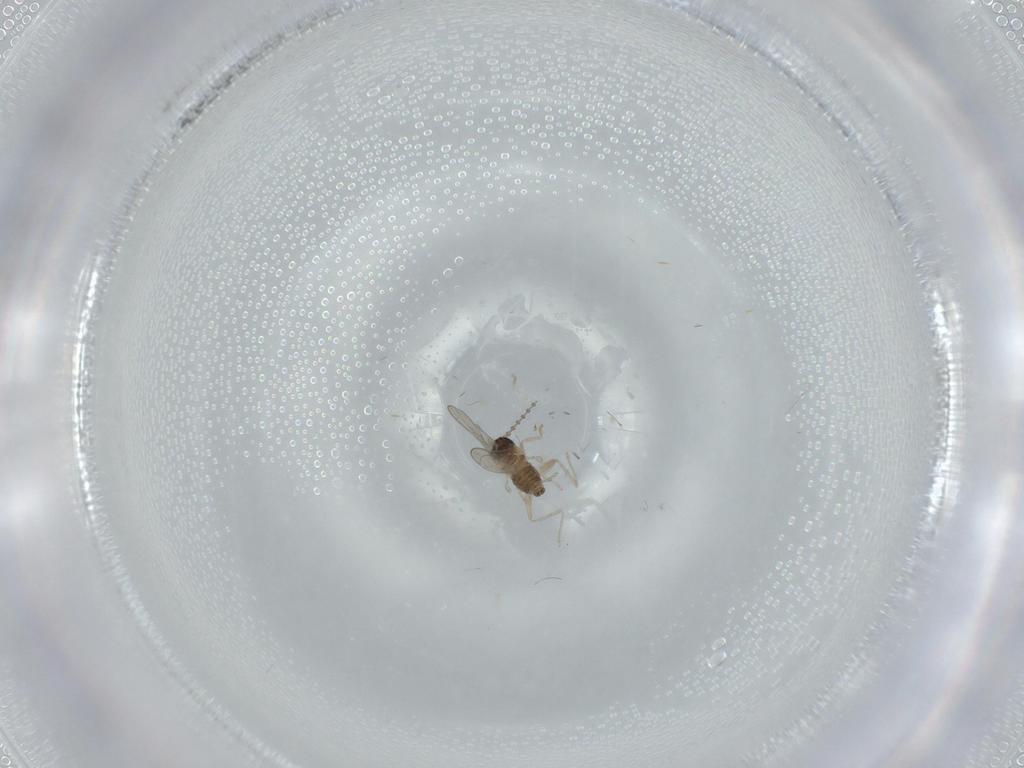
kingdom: Animalia
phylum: Arthropoda
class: Insecta
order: Diptera
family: Cecidomyiidae
